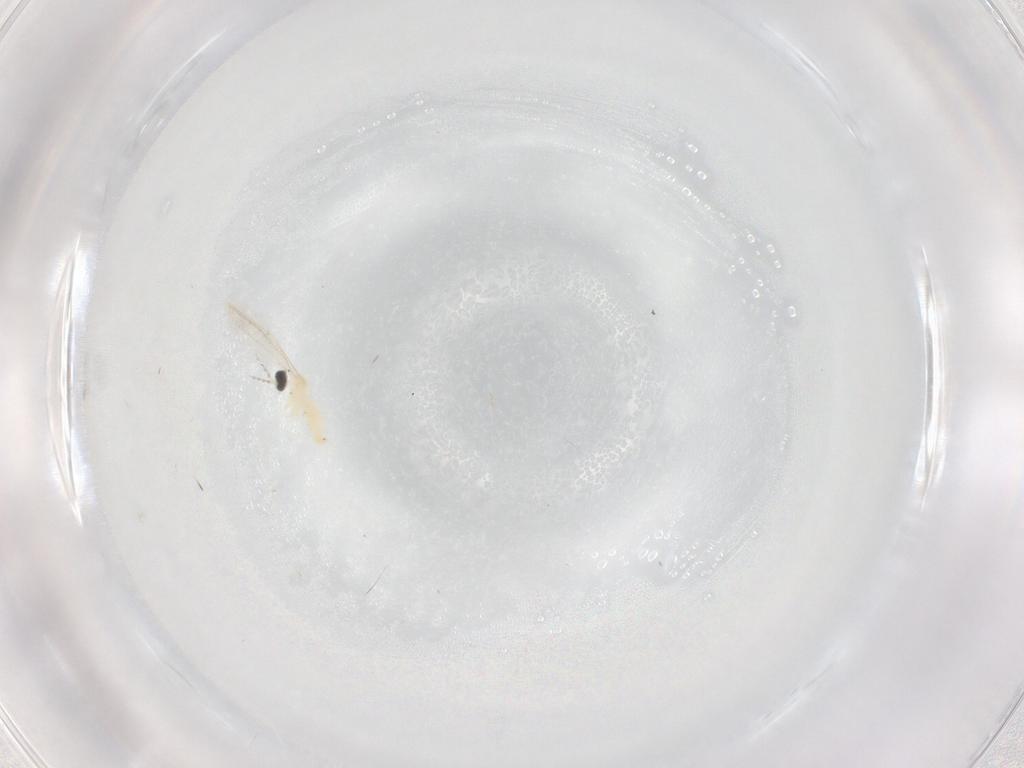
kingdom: Animalia
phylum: Arthropoda
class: Insecta
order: Diptera
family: Cecidomyiidae
